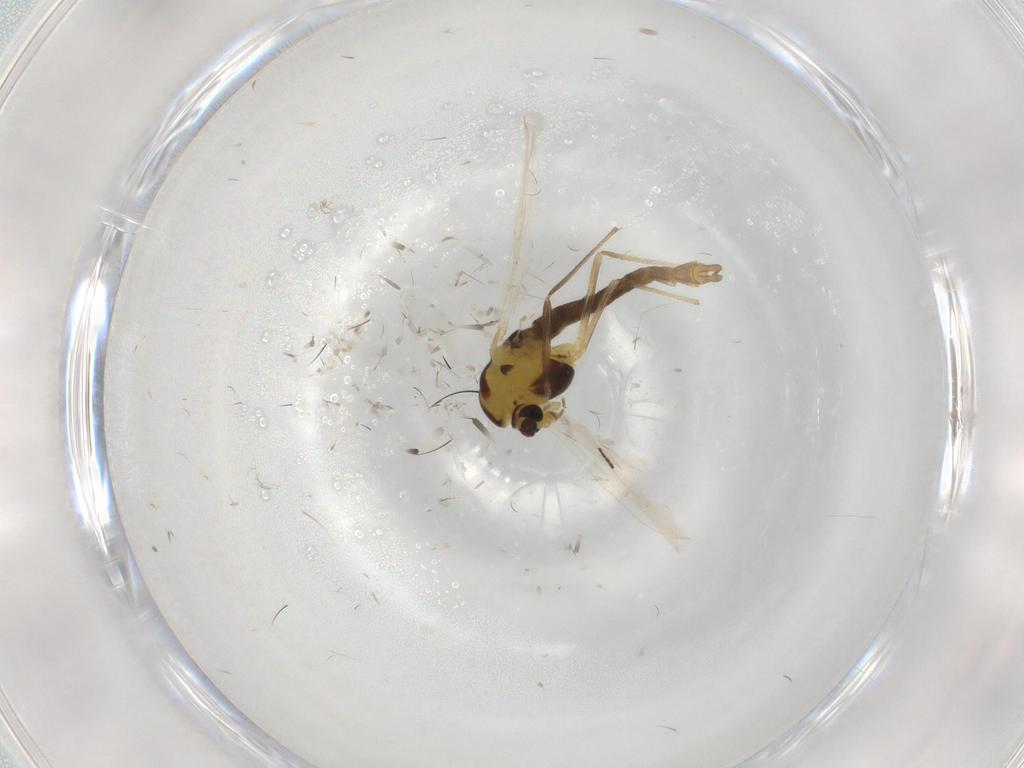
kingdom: Animalia
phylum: Arthropoda
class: Insecta
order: Diptera
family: Chironomidae
